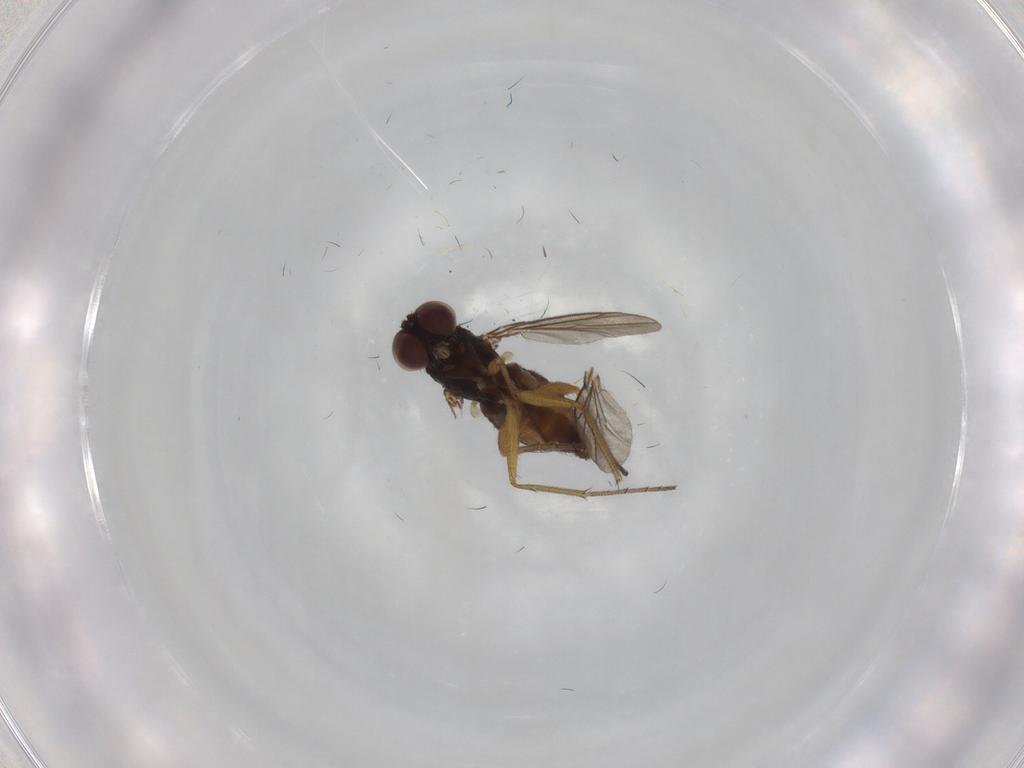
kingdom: Animalia
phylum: Arthropoda
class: Insecta
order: Diptera
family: Dolichopodidae
